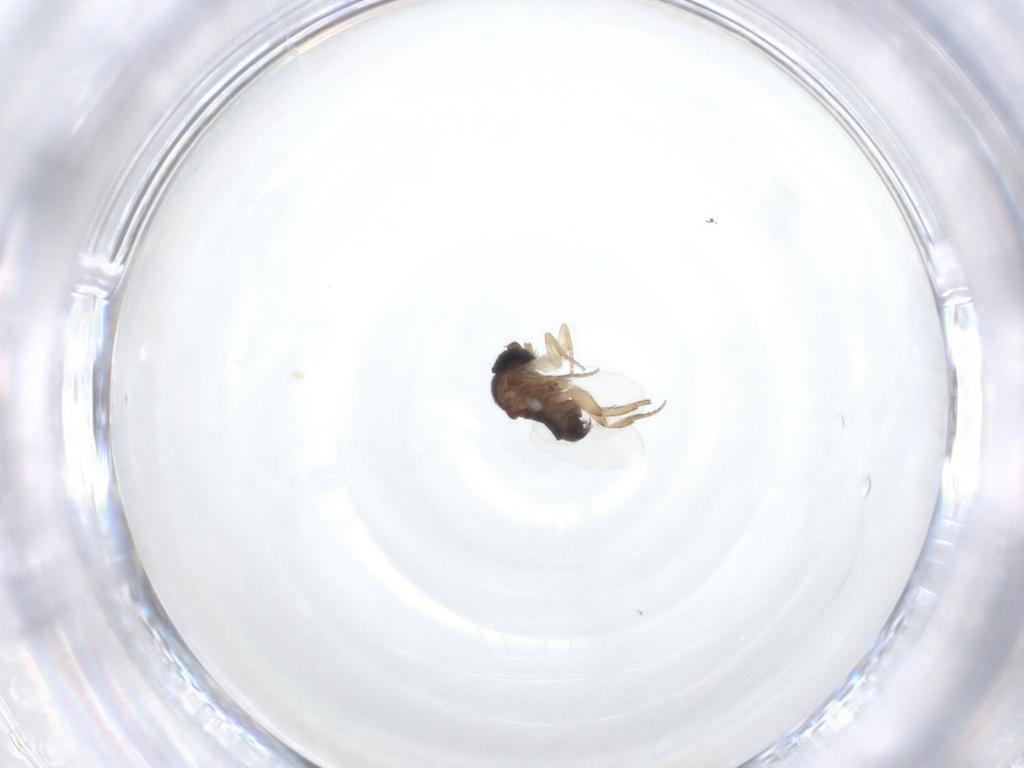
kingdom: Animalia
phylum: Arthropoda
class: Insecta
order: Diptera
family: Phoridae
